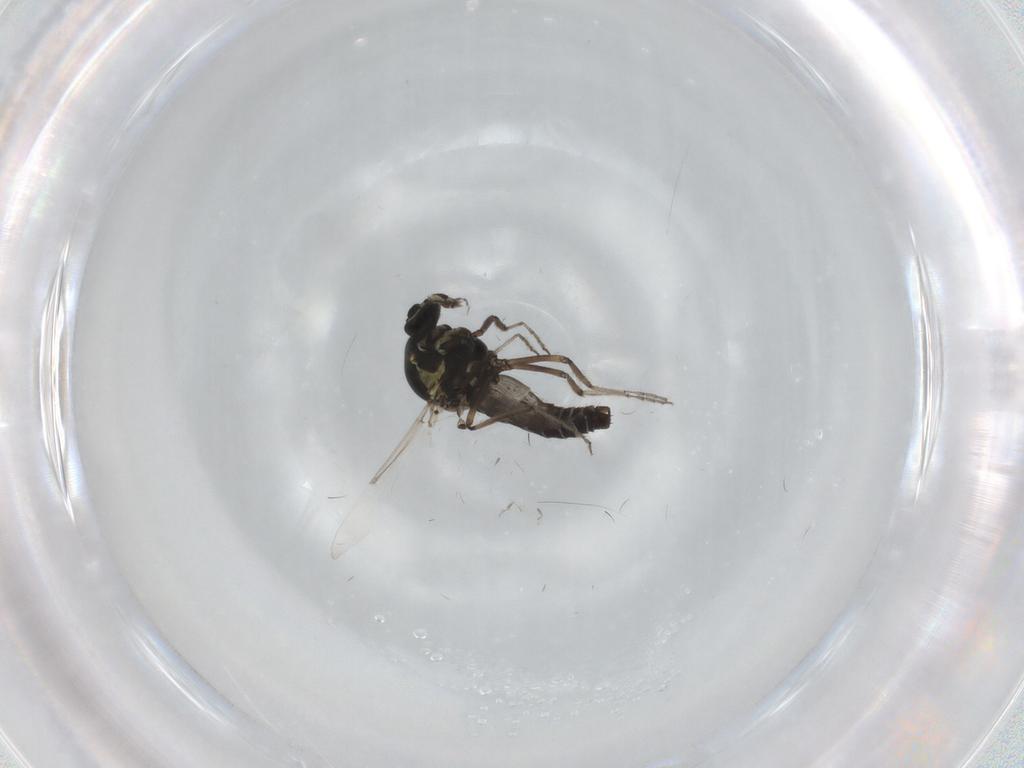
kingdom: Animalia
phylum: Arthropoda
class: Insecta
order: Diptera
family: Ceratopogonidae
